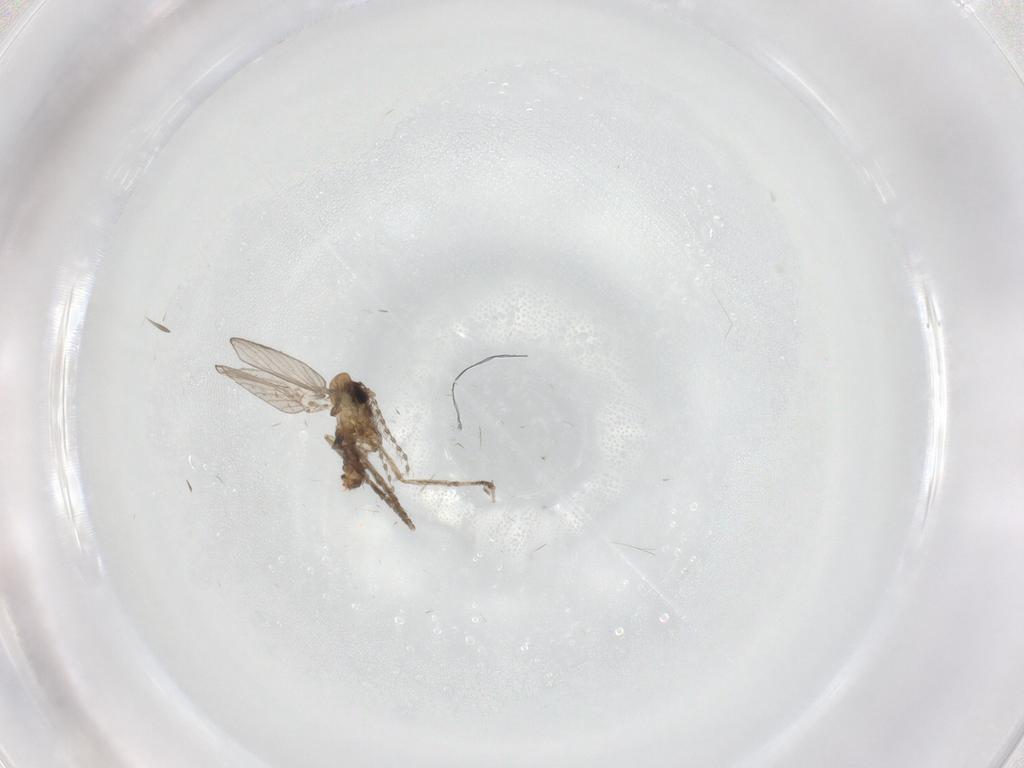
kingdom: Animalia
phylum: Arthropoda
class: Insecta
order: Diptera
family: Psychodidae
